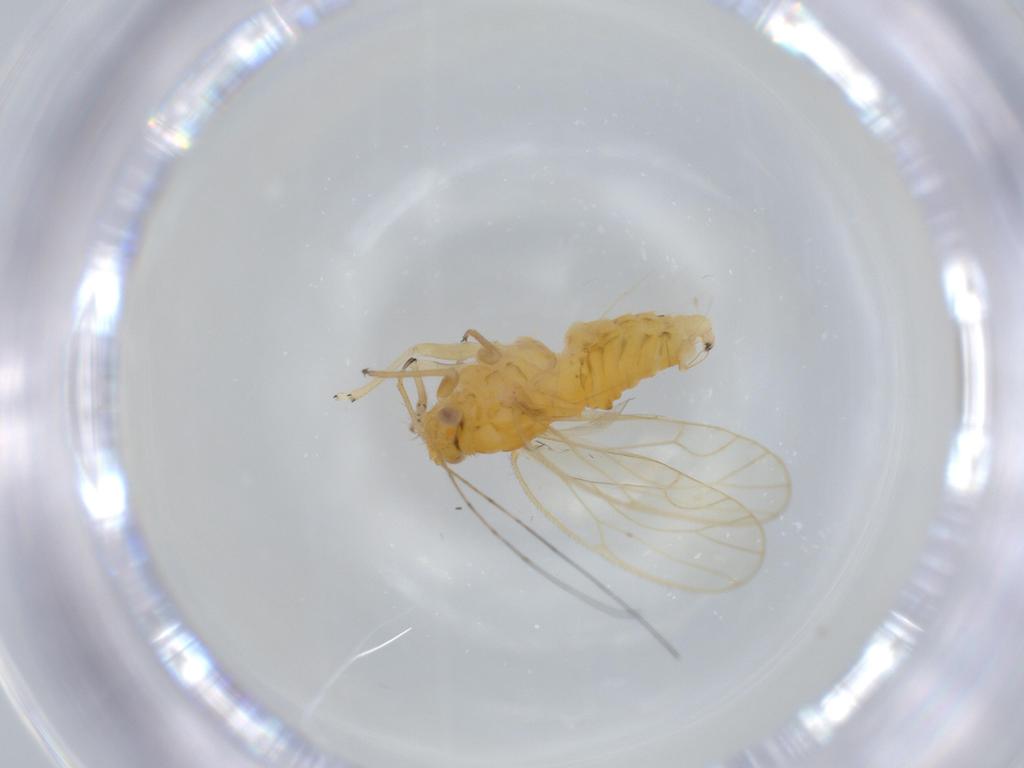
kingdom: Animalia
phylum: Arthropoda
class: Insecta
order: Hemiptera
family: Psyllidae
